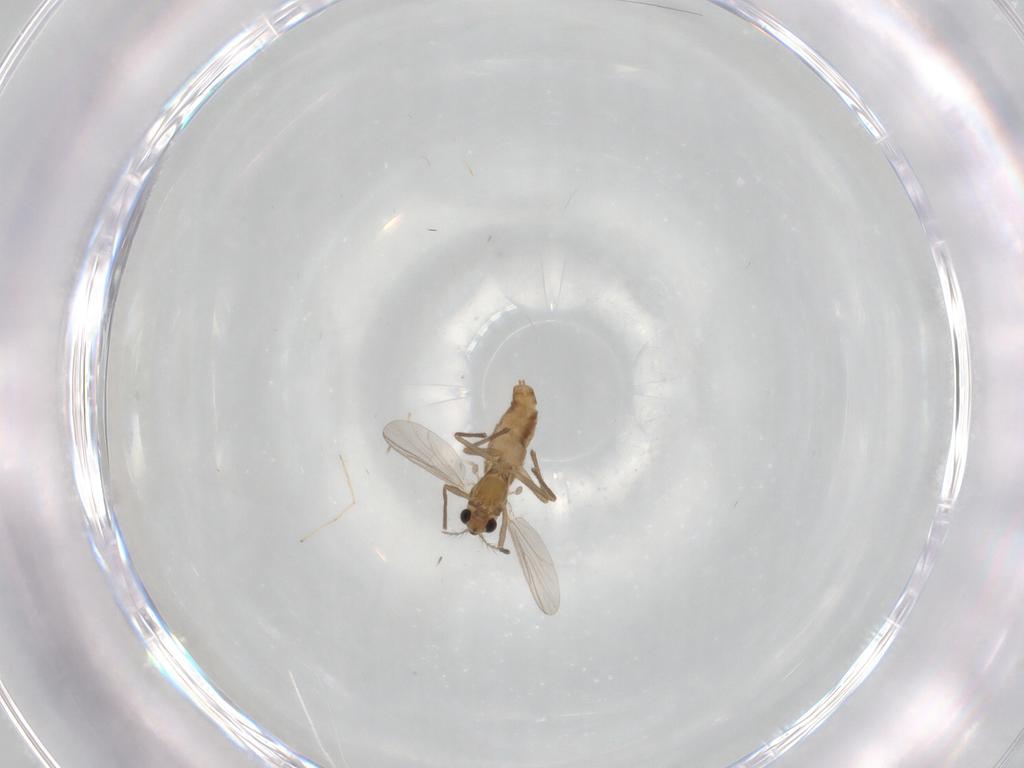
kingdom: Animalia
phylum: Arthropoda
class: Insecta
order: Diptera
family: Chironomidae
